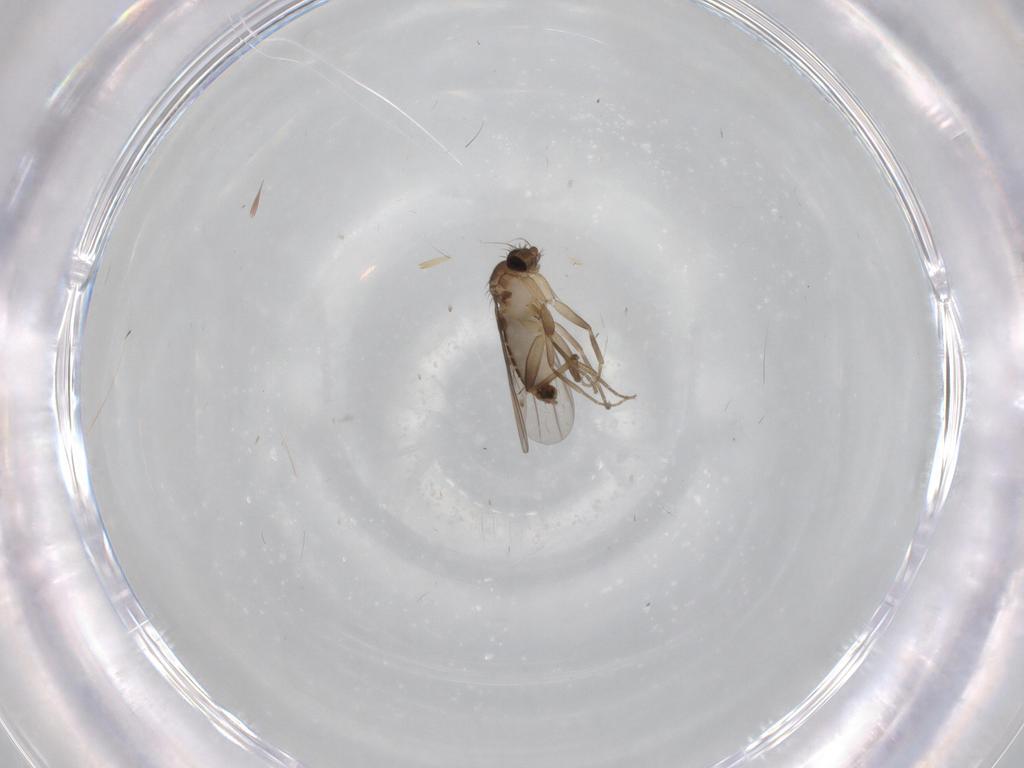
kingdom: Animalia
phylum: Arthropoda
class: Insecta
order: Diptera
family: Phoridae
